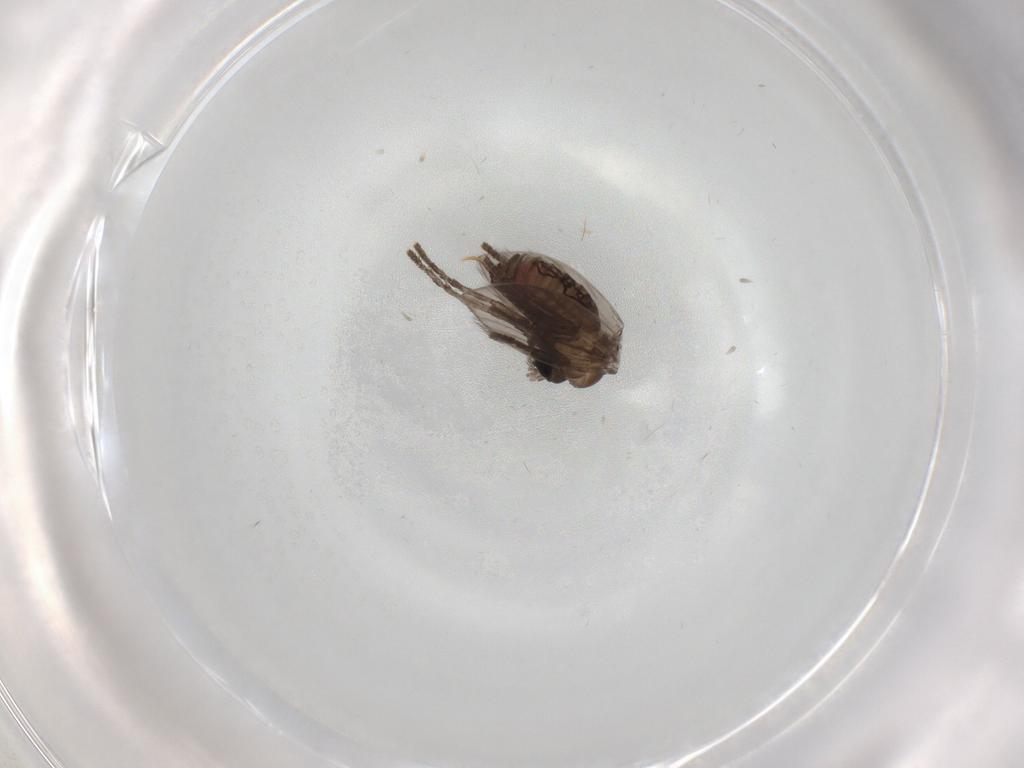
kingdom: Animalia
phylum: Arthropoda
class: Insecta
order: Diptera
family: Psychodidae
